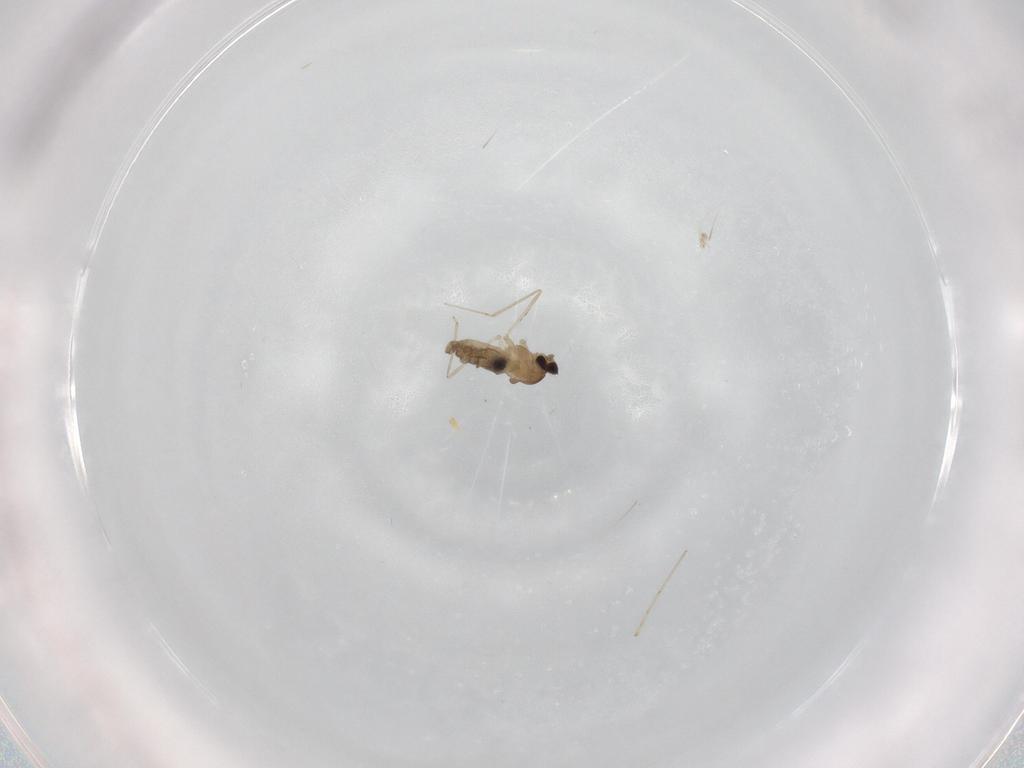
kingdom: Animalia
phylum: Arthropoda
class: Insecta
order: Diptera
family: Cecidomyiidae
